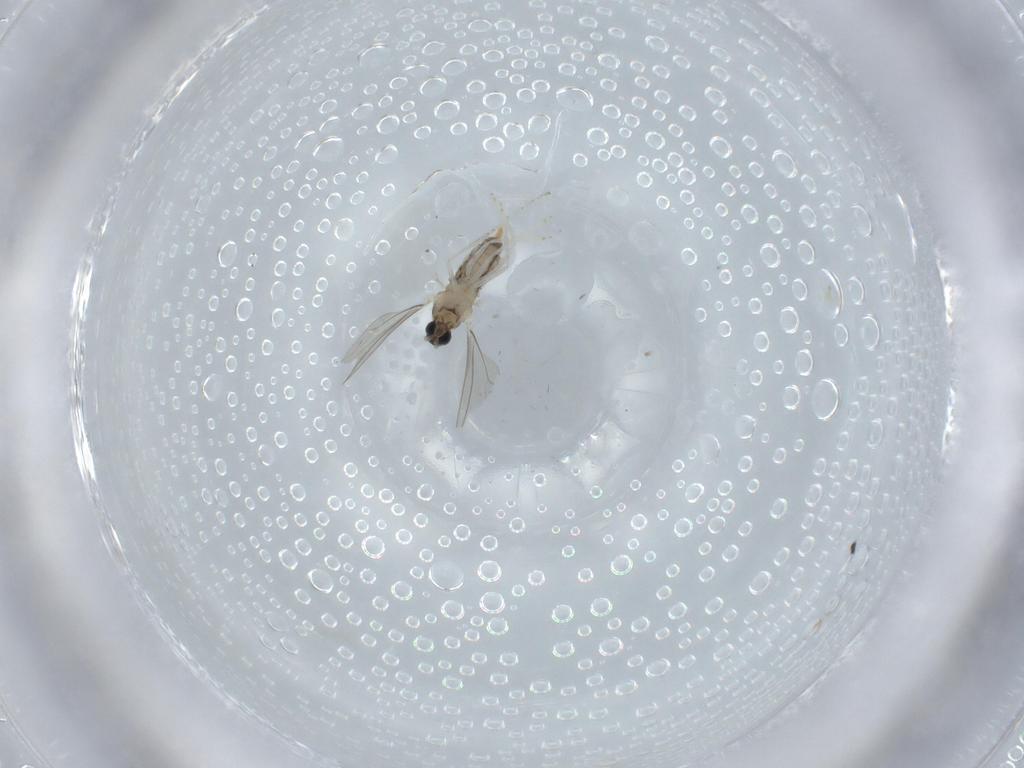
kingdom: Animalia
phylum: Arthropoda
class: Insecta
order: Diptera
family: Cecidomyiidae
